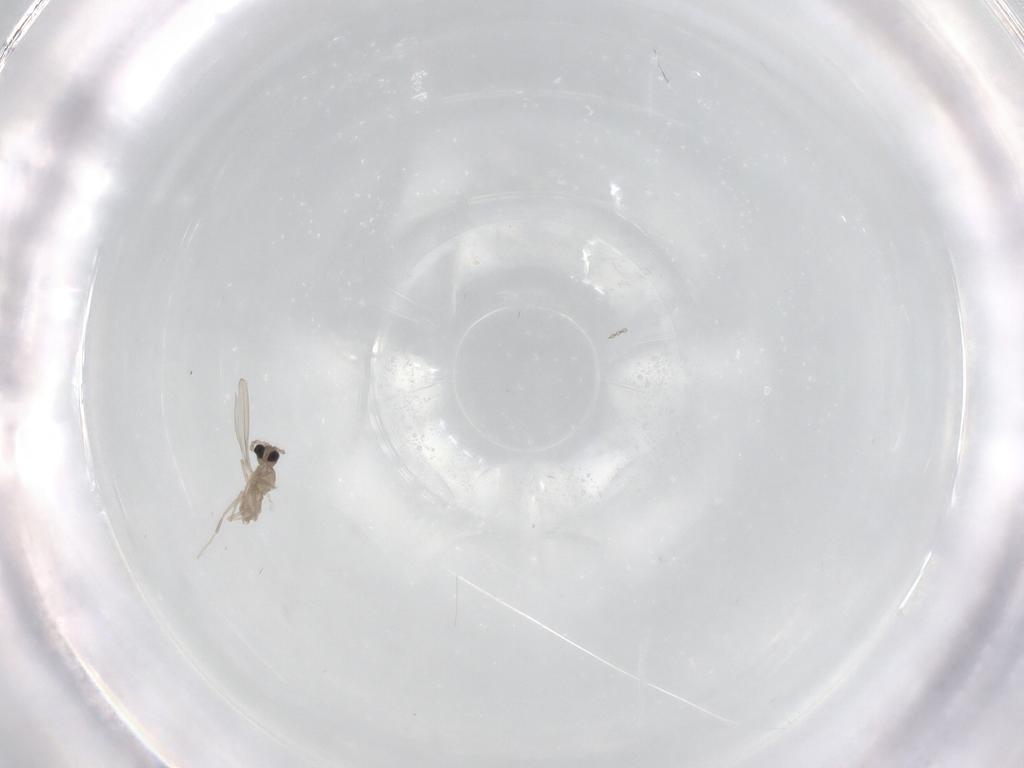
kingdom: Animalia
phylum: Arthropoda
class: Insecta
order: Diptera
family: Cecidomyiidae
